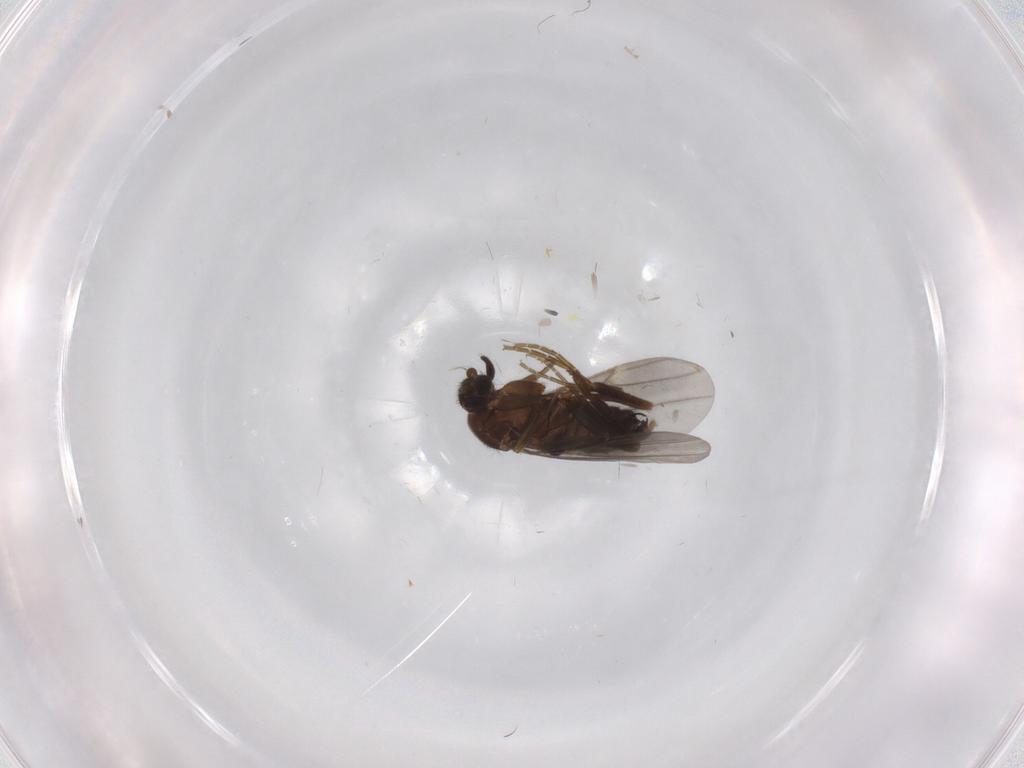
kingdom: Animalia
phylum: Arthropoda
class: Insecta
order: Diptera
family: Phoridae
